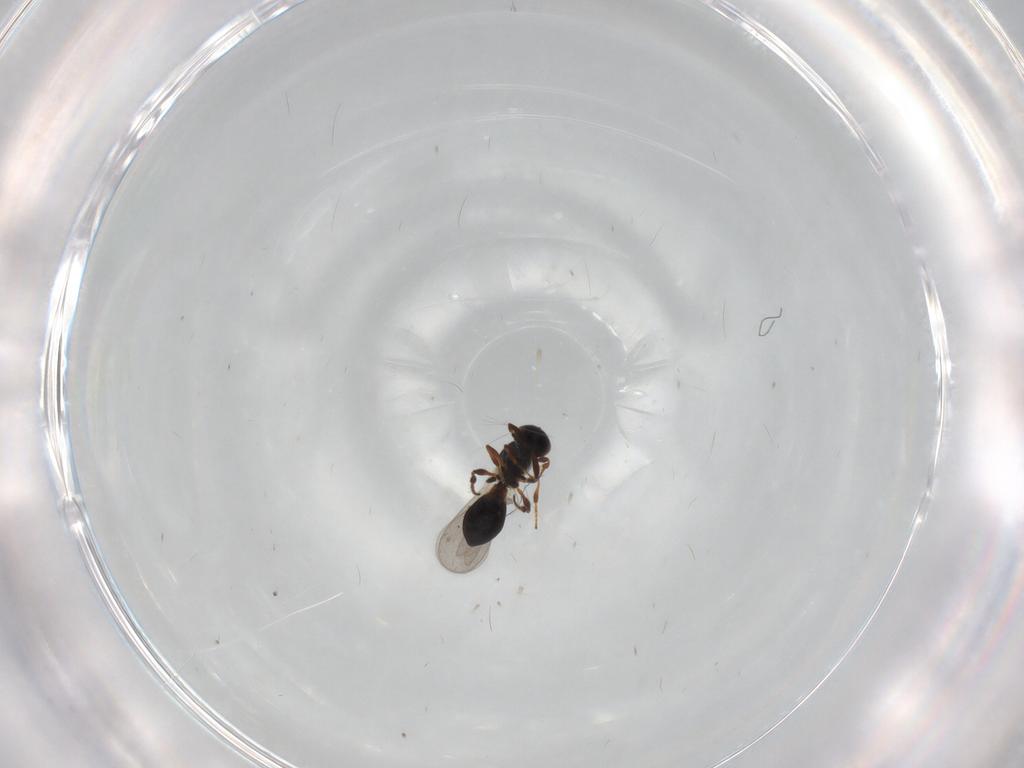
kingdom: Animalia
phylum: Arthropoda
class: Insecta
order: Hymenoptera
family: Platygastridae
